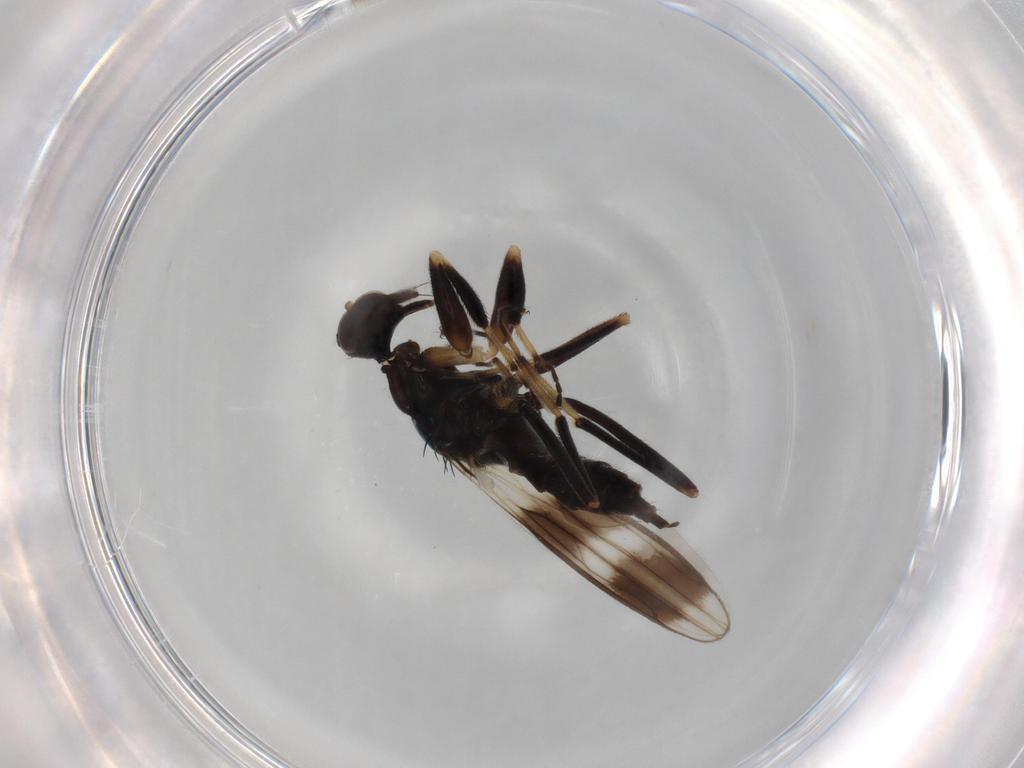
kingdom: Animalia
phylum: Arthropoda
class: Insecta
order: Diptera
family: Hybotidae
